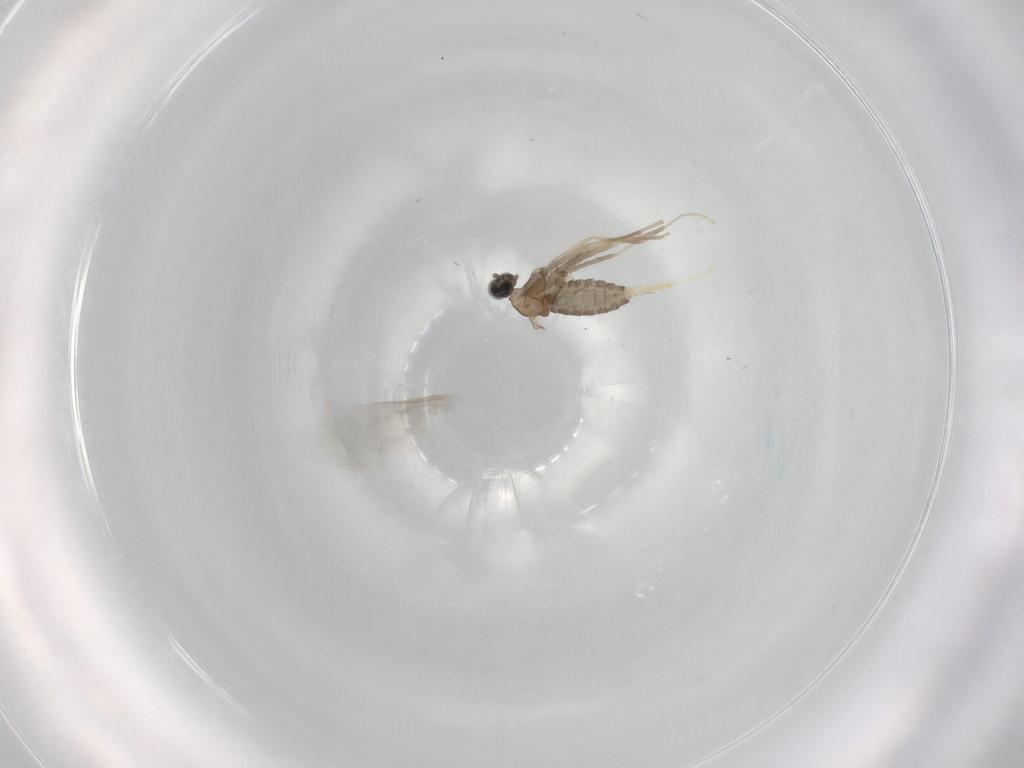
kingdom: Animalia
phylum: Arthropoda
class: Insecta
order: Diptera
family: Cecidomyiidae
